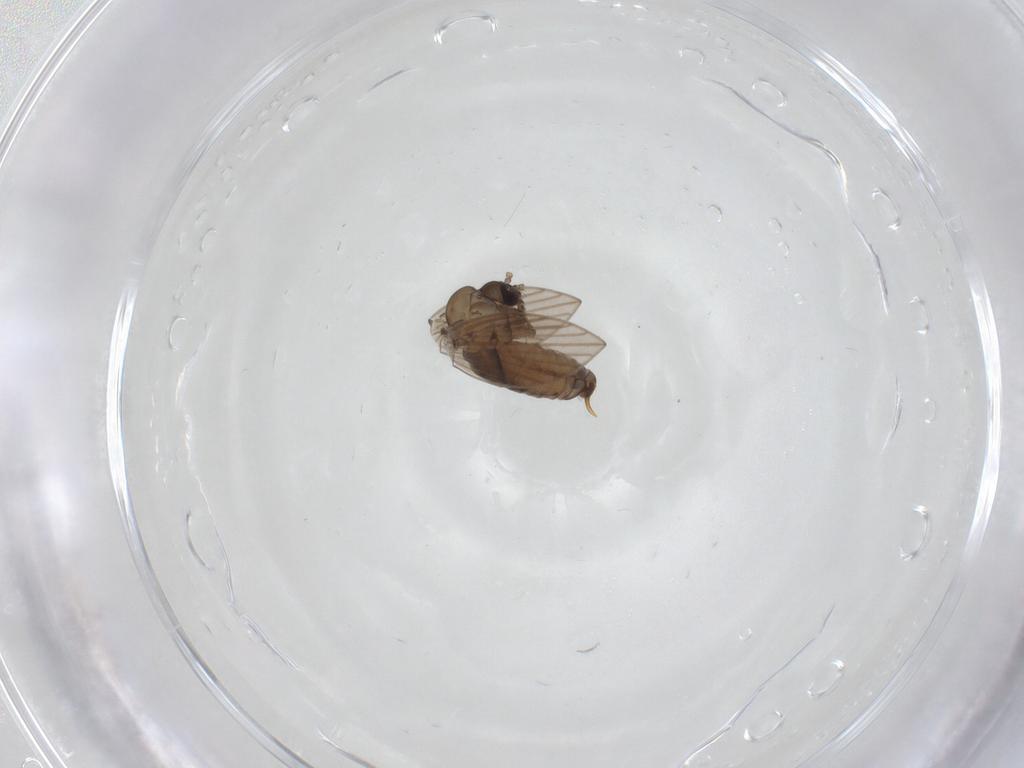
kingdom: Animalia
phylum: Arthropoda
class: Insecta
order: Diptera
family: Psychodidae
